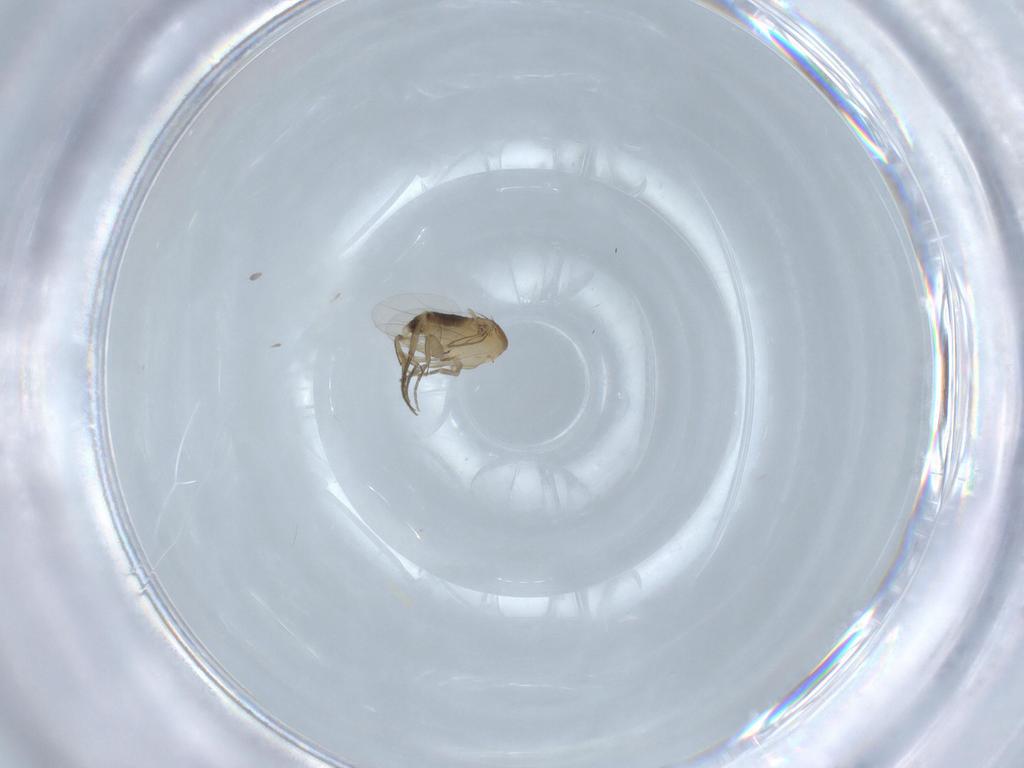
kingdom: Animalia
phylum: Arthropoda
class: Insecta
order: Diptera
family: Phoridae
